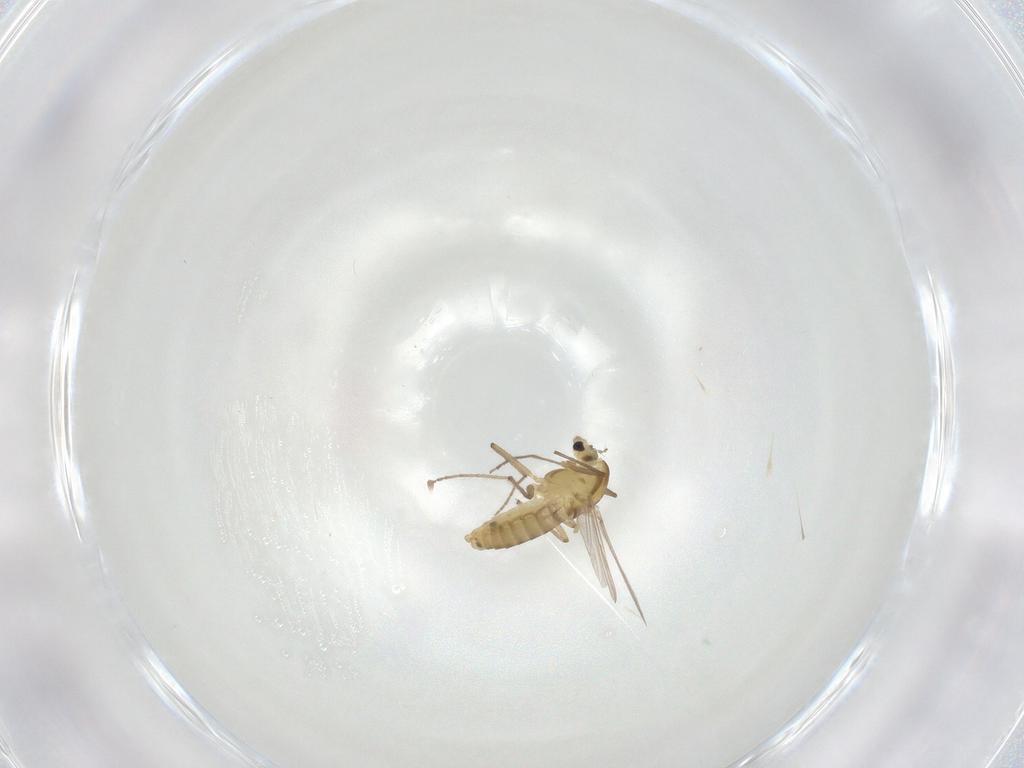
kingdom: Animalia
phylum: Arthropoda
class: Insecta
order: Diptera
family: Chironomidae
